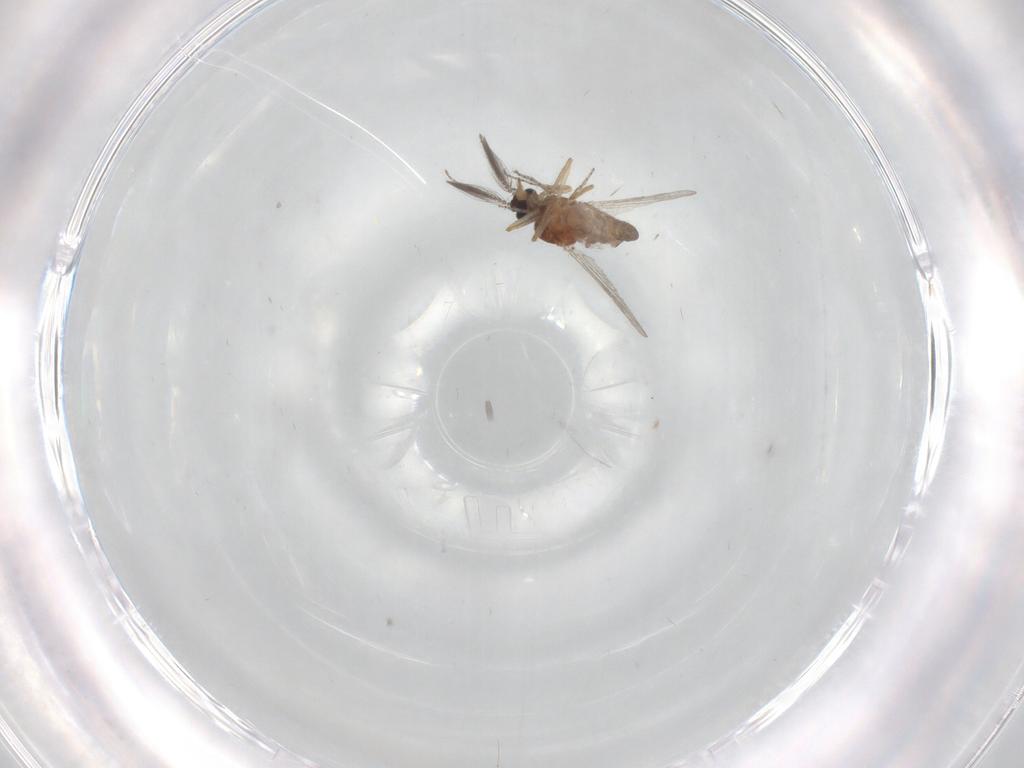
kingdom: Animalia
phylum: Arthropoda
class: Insecta
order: Diptera
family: Ceratopogonidae
